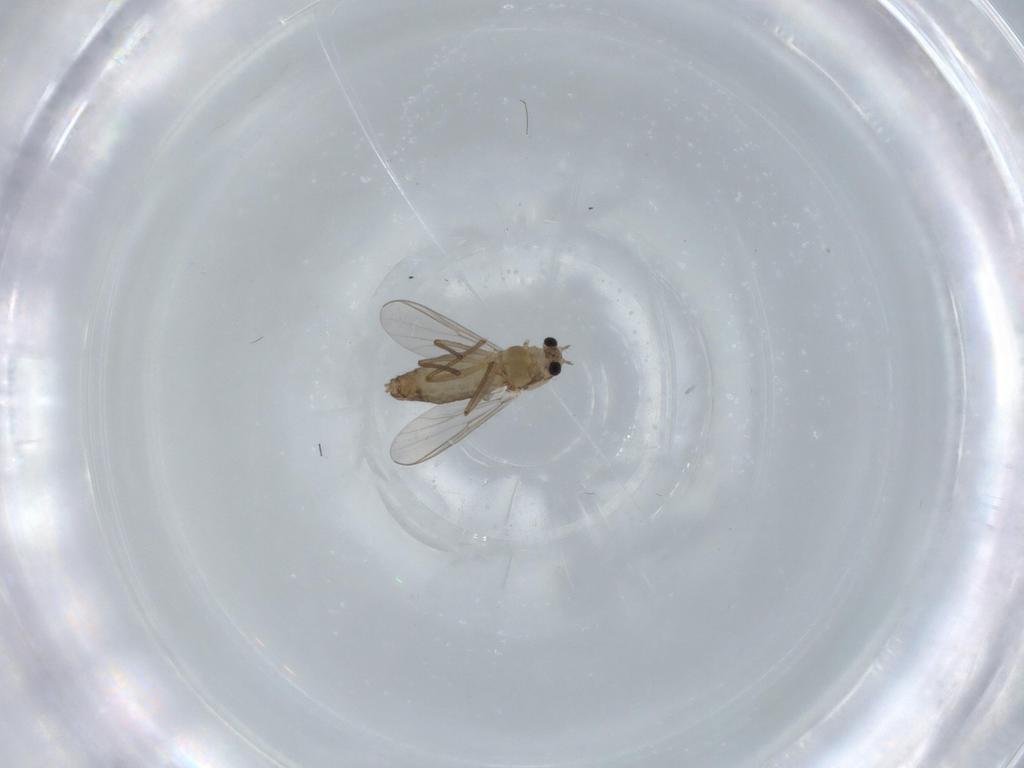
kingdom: Animalia
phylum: Arthropoda
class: Insecta
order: Diptera
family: Chironomidae
